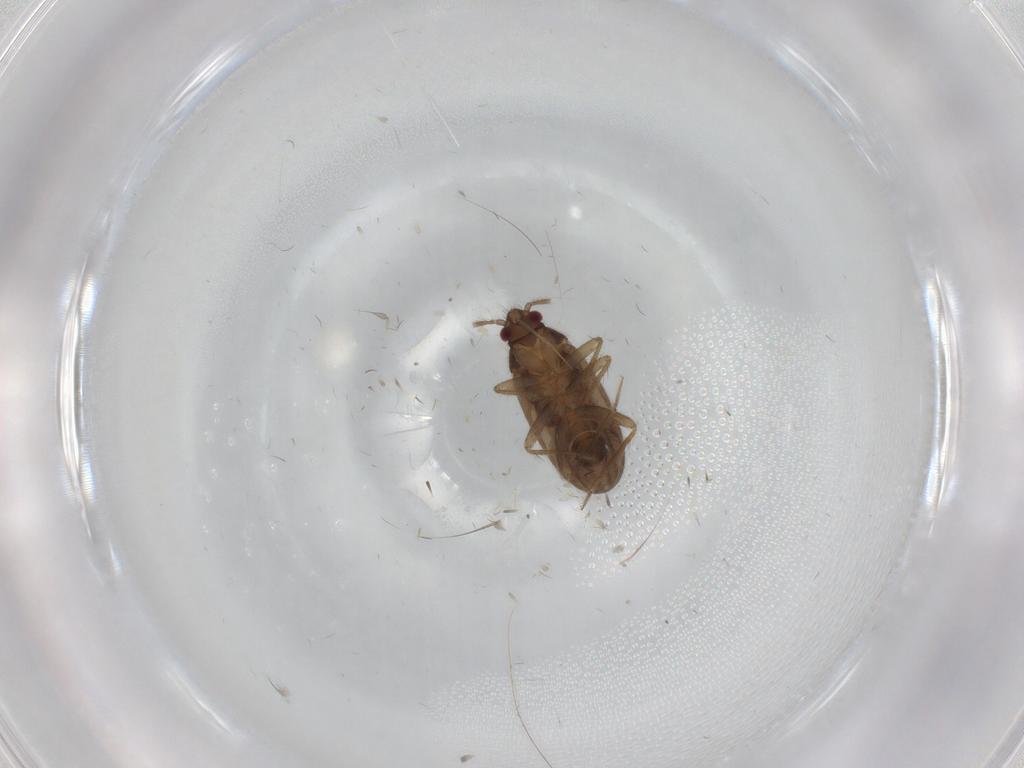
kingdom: Animalia
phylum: Arthropoda
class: Insecta
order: Hemiptera
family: Ceratocombidae
